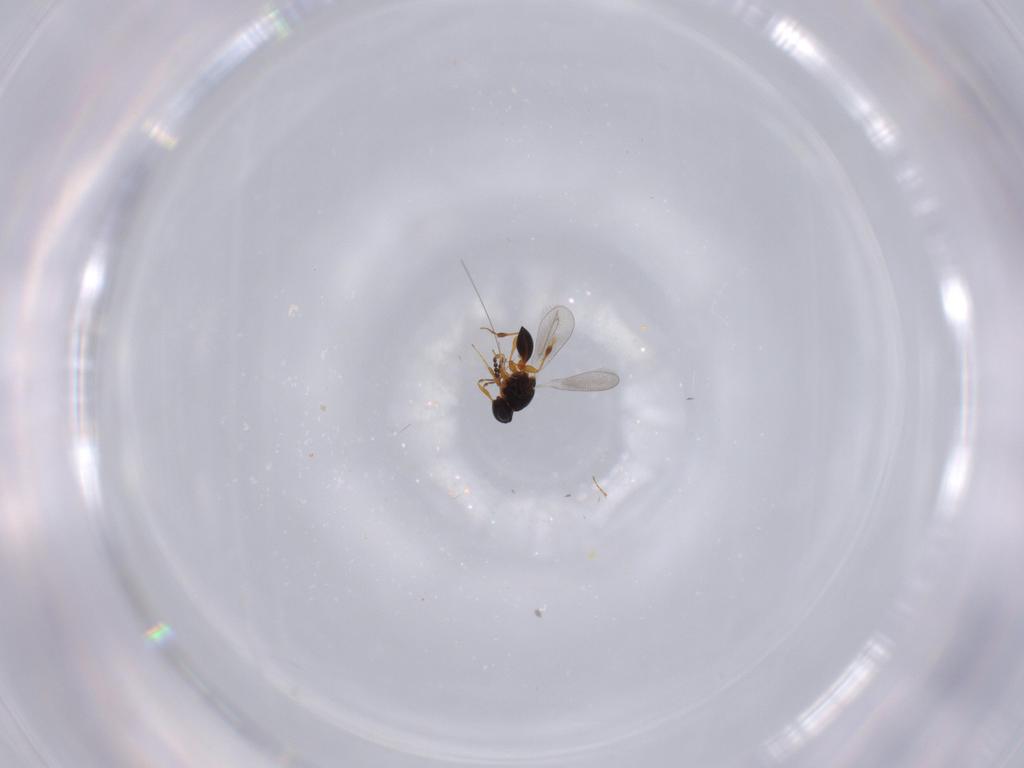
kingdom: Animalia
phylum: Arthropoda
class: Insecta
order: Hymenoptera
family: Platygastridae
